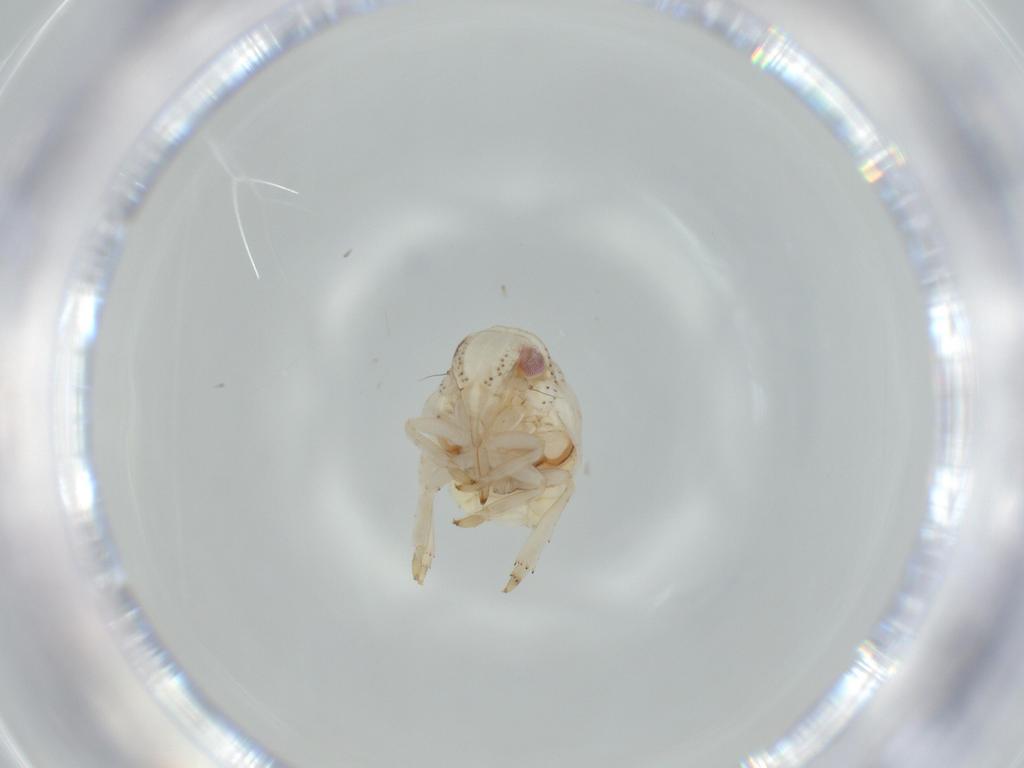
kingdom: Animalia
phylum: Arthropoda
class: Insecta
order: Hemiptera
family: Acanaloniidae
